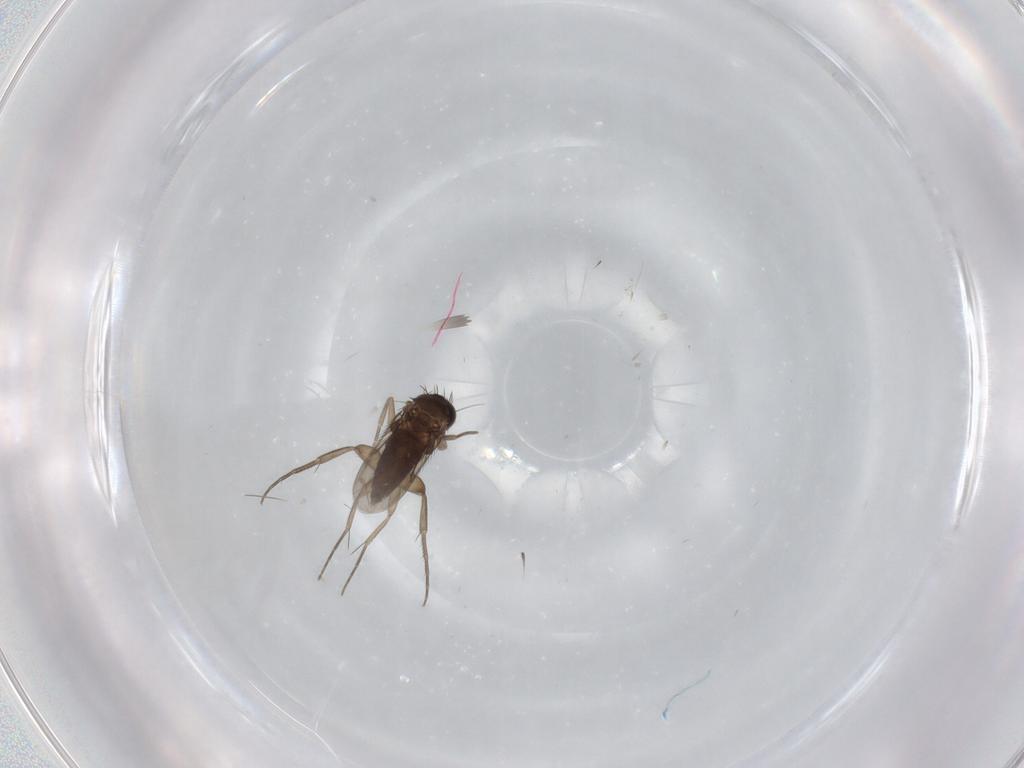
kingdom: Animalia
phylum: Arthropoda
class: Insecta
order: Diptera
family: Phoridae
